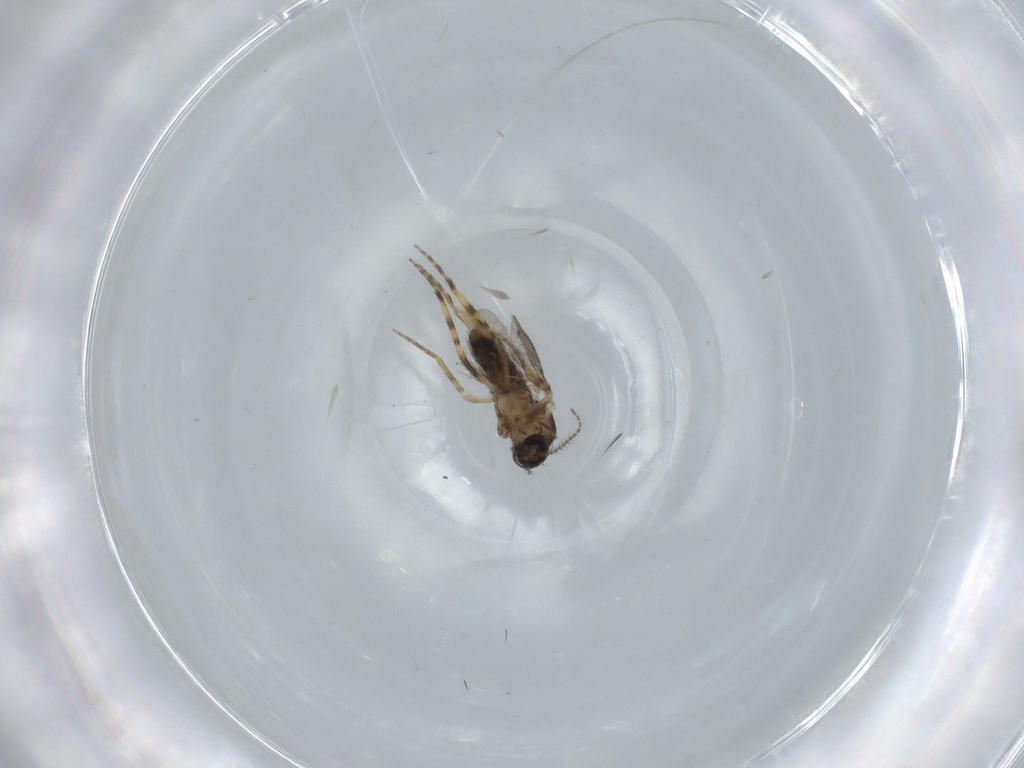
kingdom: Animalia
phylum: Arthropoda
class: Insecta
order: Diptera
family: Ceratopogonidae
